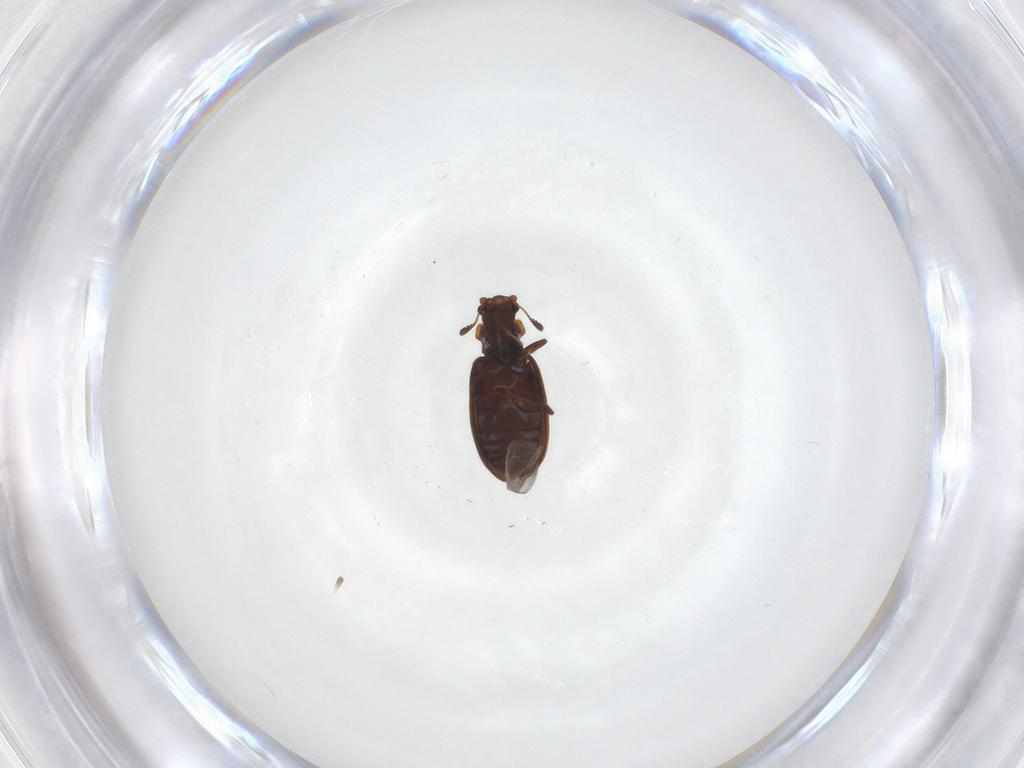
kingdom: Animalia
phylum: Arthropoda
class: Insecta
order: Coleoptera
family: Latridiidae
